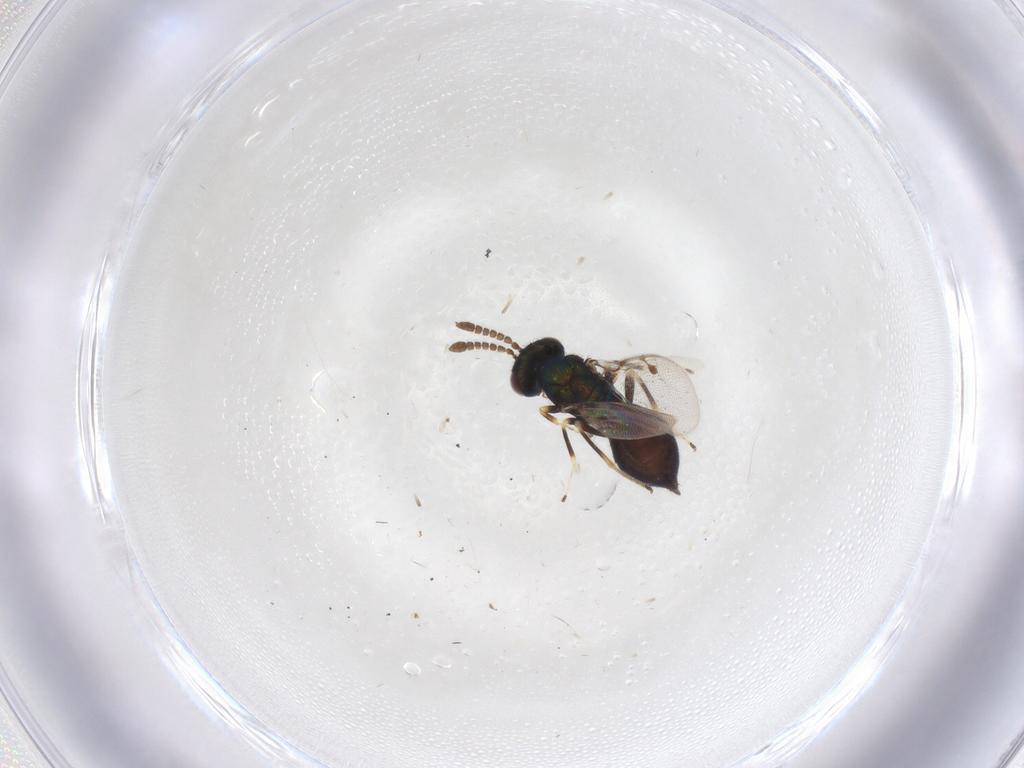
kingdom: Animalia
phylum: Arthropoda
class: Insecta
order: Hymenoptera
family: Pirenidae
